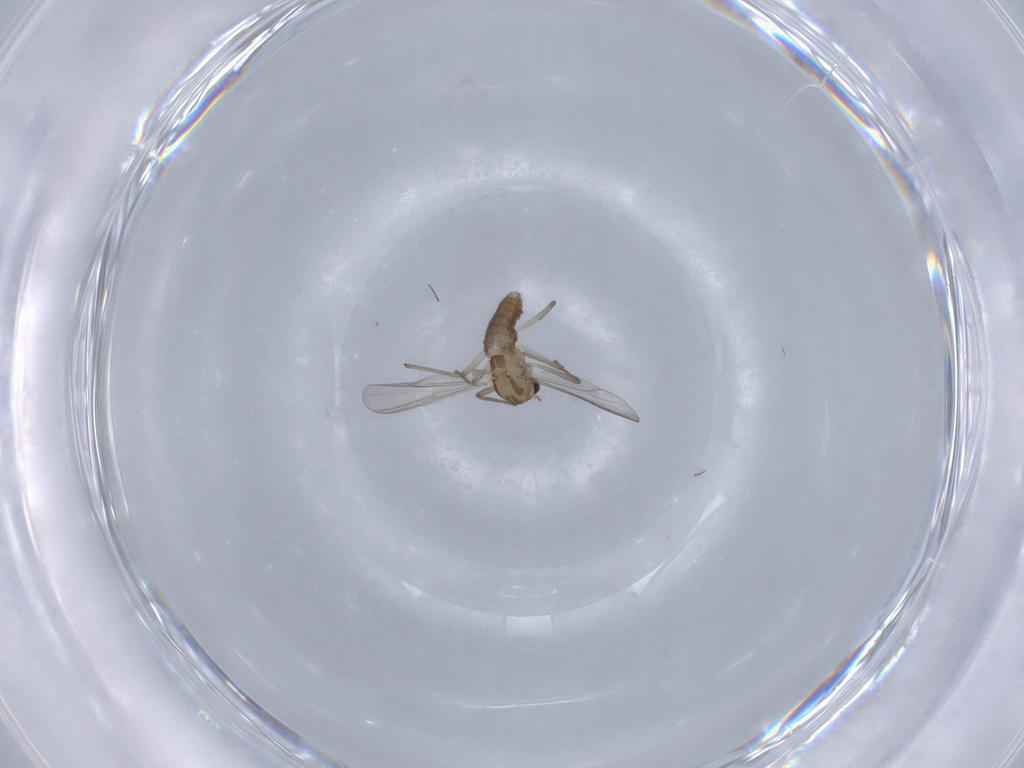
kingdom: Animalia
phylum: Arthropoda
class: Insecta
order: Diptera
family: Chironomidae
